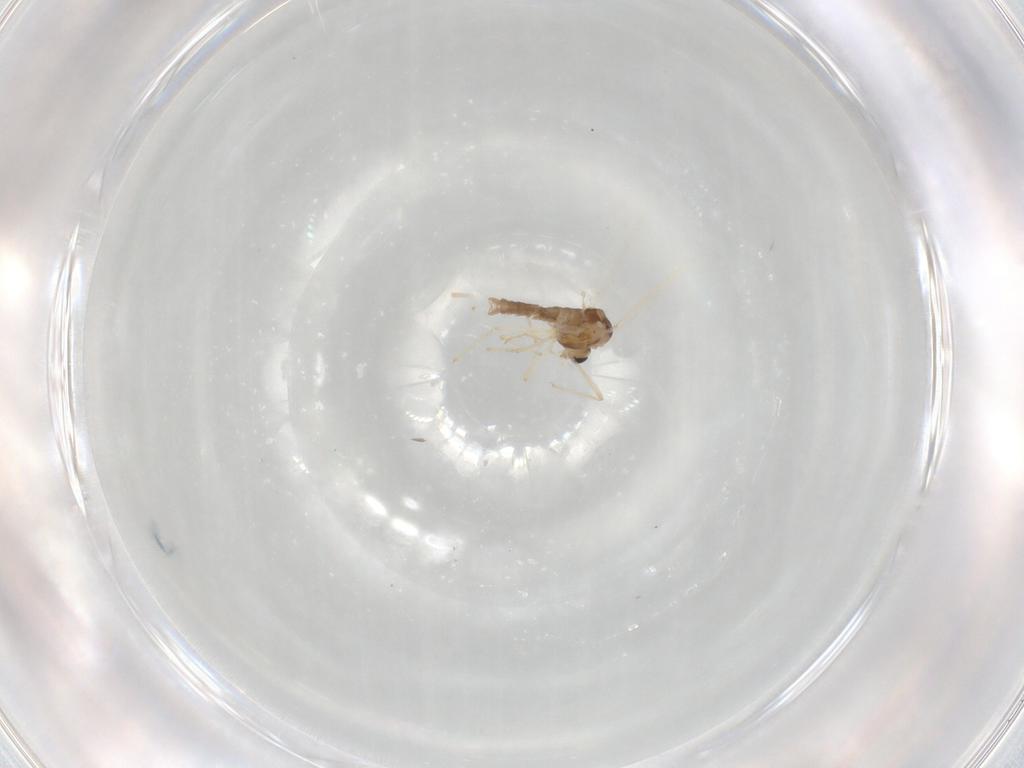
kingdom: Animalia
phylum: Arthropoda
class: Insecta
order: Diptera
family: Chironomidae
